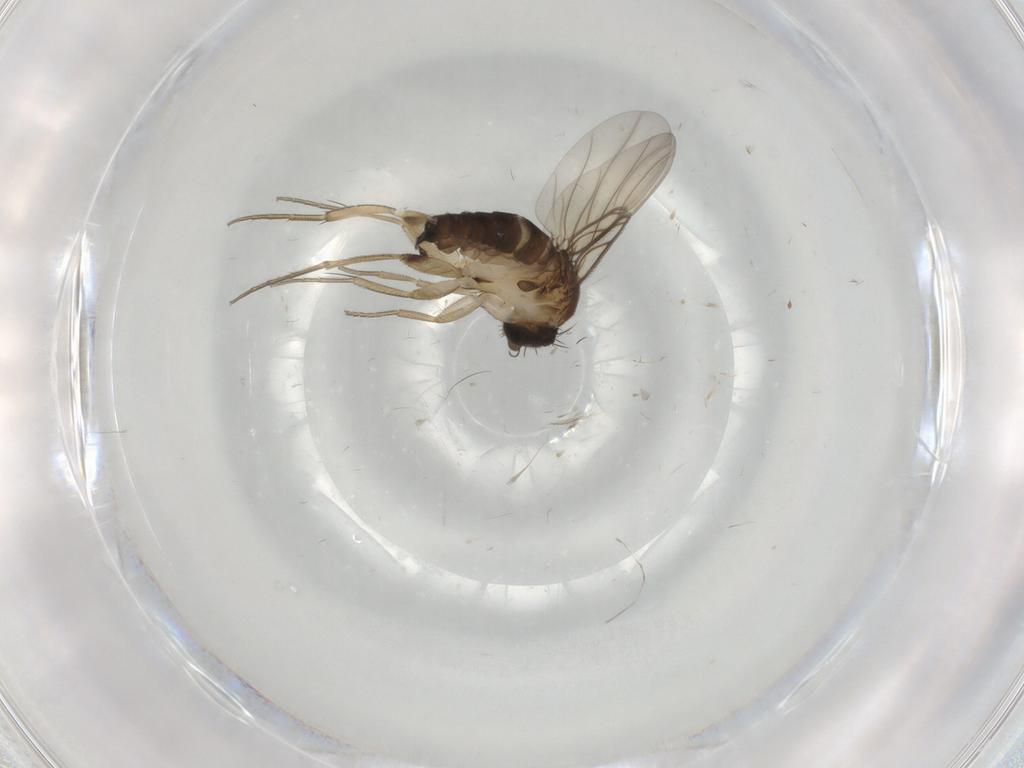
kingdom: Animalia
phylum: Arthropoda
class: Insecta
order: Diptera
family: Phoridae
